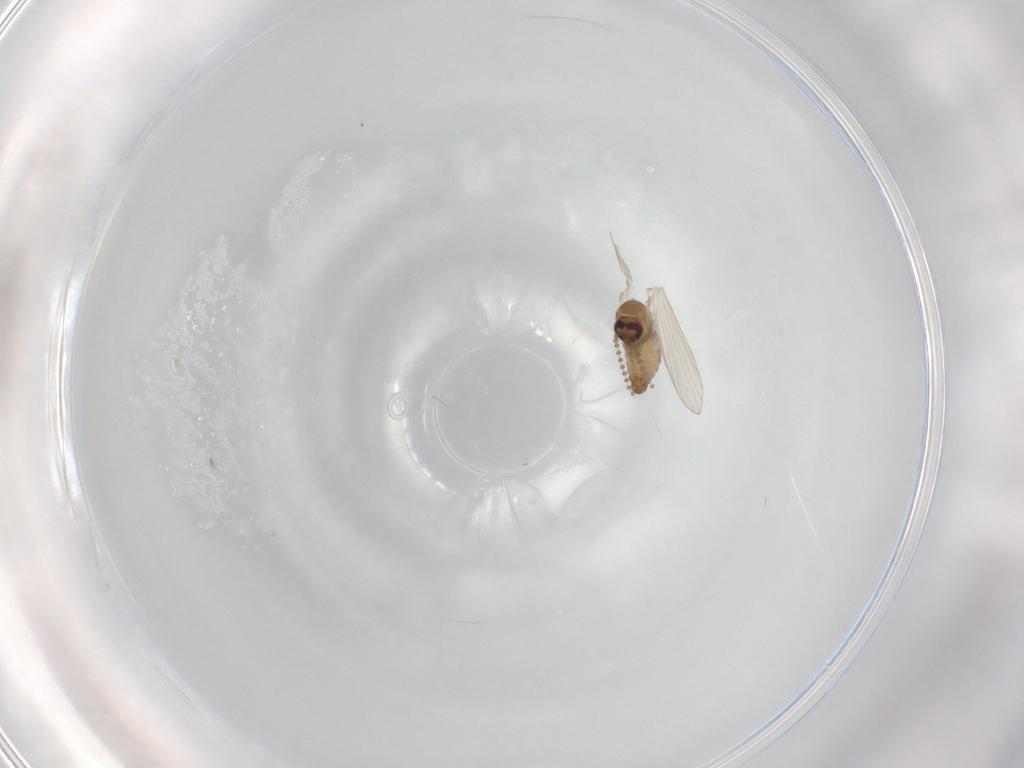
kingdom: Animalia
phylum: Arthropoda
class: Insecta
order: Diptera
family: Psychodidae
